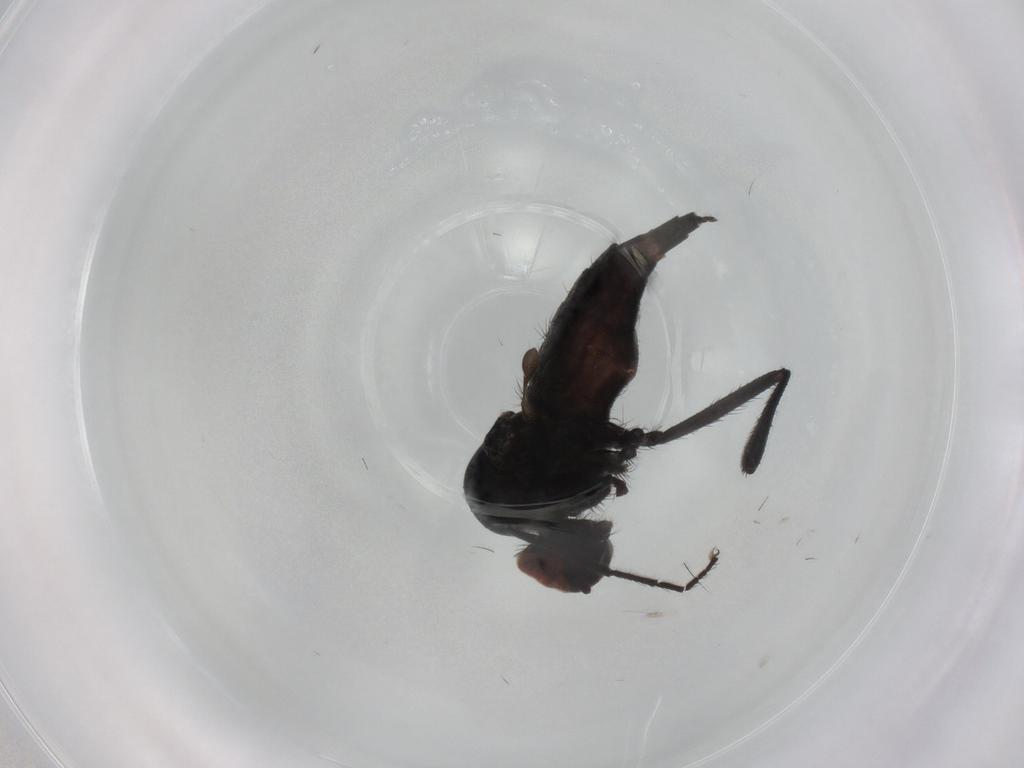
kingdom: Animalia
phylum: Arthropoda
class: Insecta
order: Diptera
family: Hybotidae
